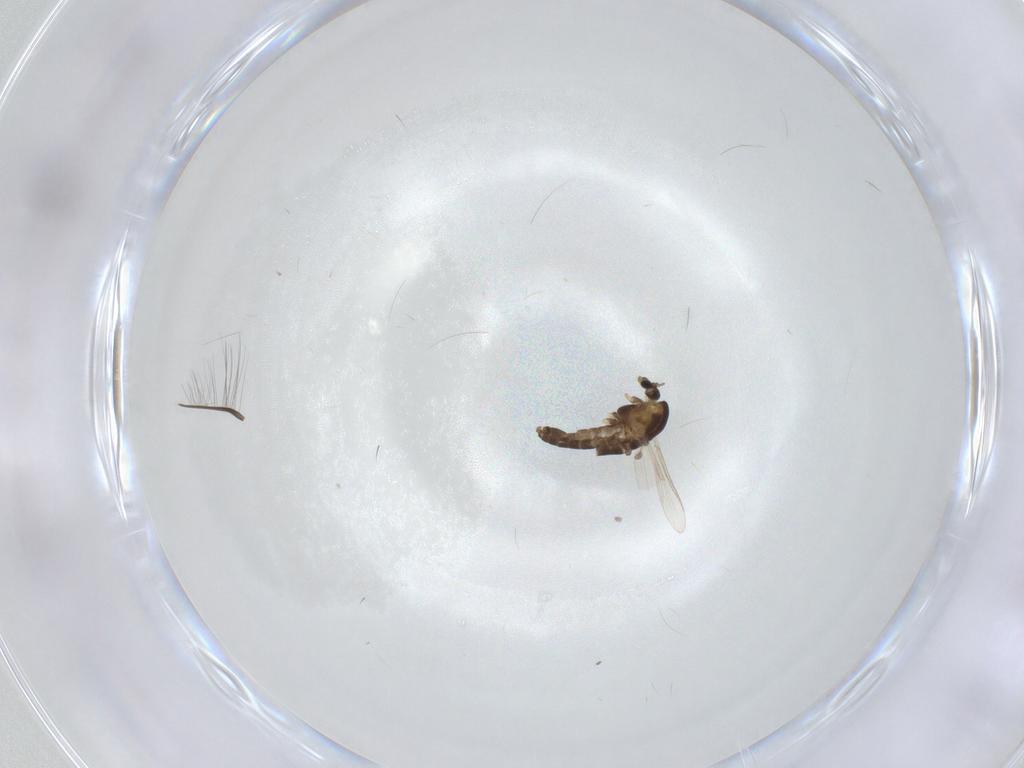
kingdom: Animalia
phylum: Arthropoda
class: Insecta
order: Diptera
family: Chironomidae
